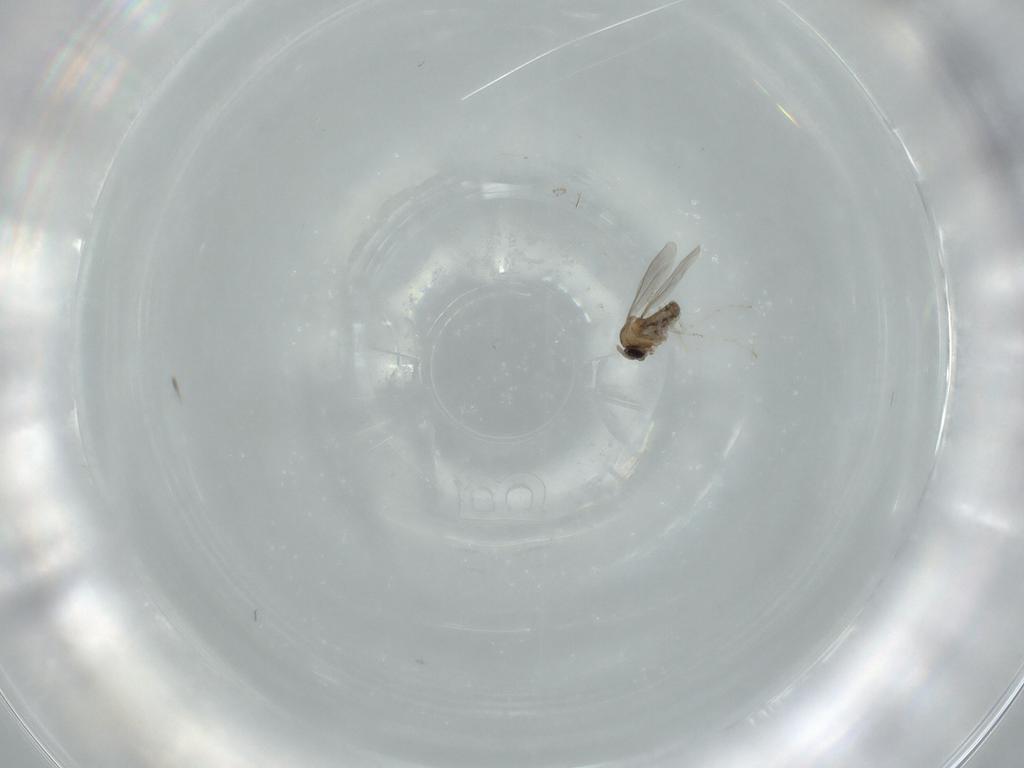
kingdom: Animalia
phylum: Arthropoda
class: Insecta
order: Diptera
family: Cecidomyiidae
